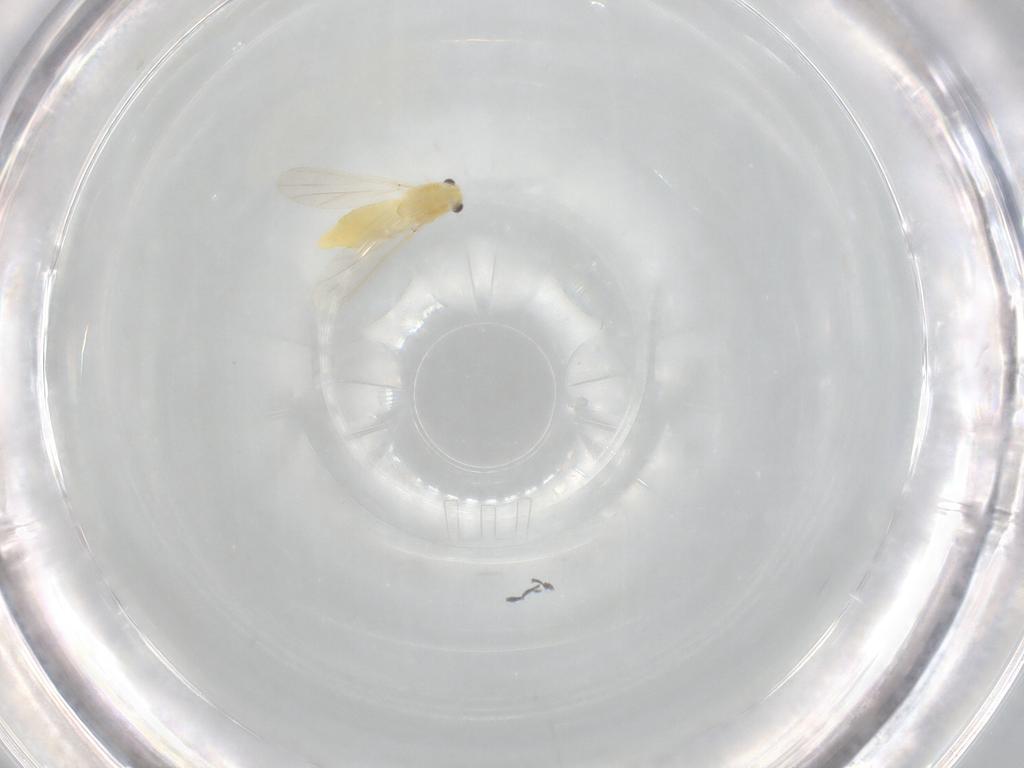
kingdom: Animalia
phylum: Arthropoda
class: Insecta
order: Diptera
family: Chironomidae
